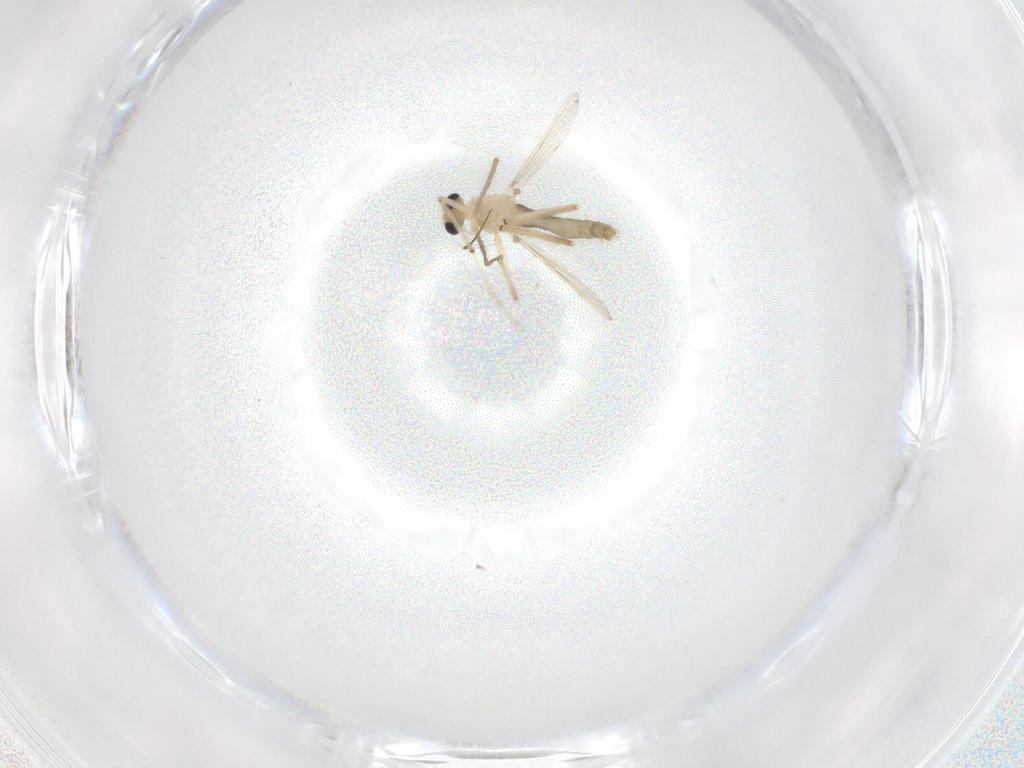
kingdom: Animalia
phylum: Arthropoda
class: Insecta
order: Diptera
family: Chironomidae
